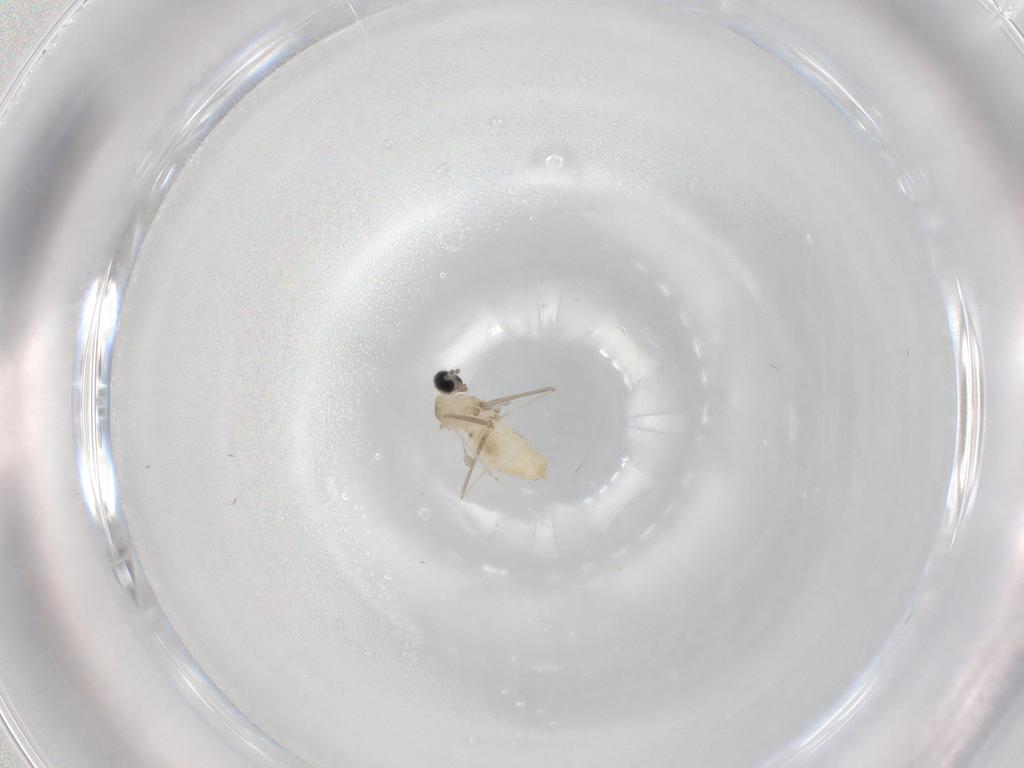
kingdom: Animalia
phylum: Arthropoda
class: Insecta
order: Diptera
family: Cecidomyiidae
